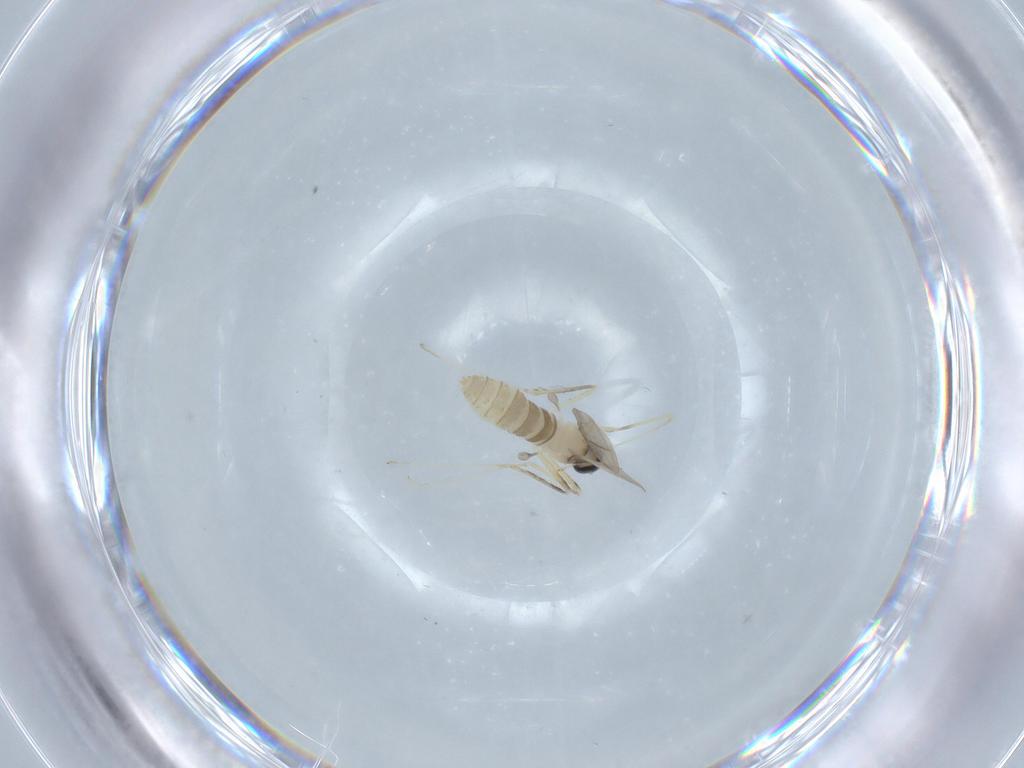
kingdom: Animalia
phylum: Arthropoda
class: Insecta
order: Diptera
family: Cecidomyiidae
